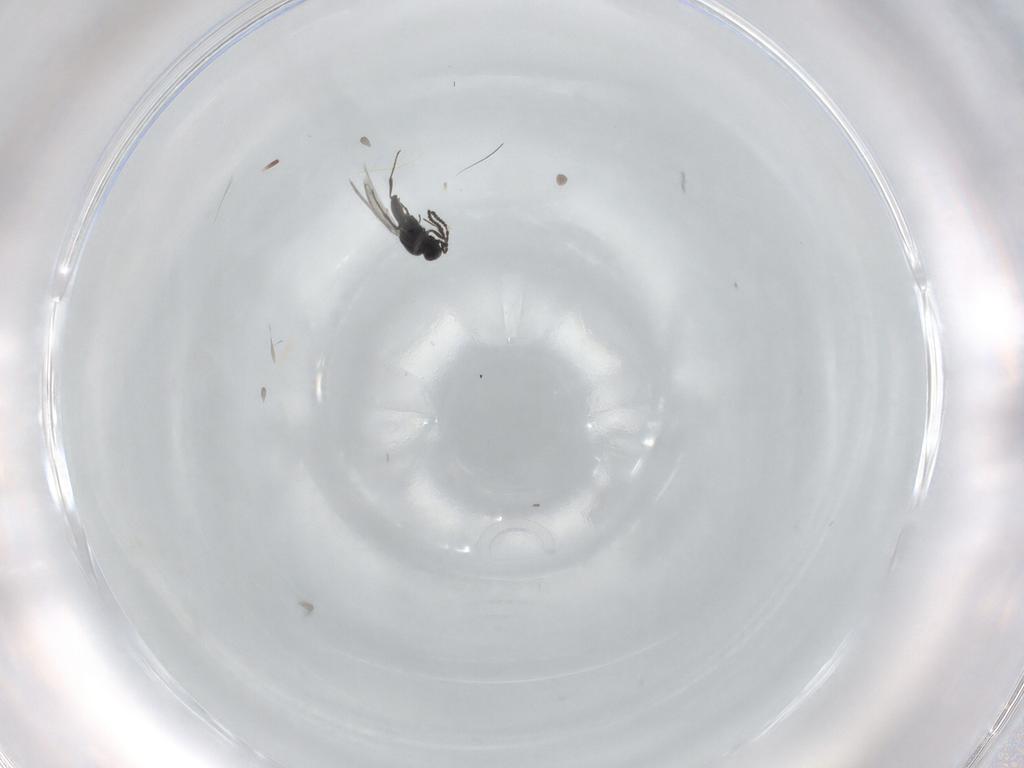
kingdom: Animalia
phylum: Arthropoda
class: Insecta
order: Hymenoptera
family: Scelionidae
